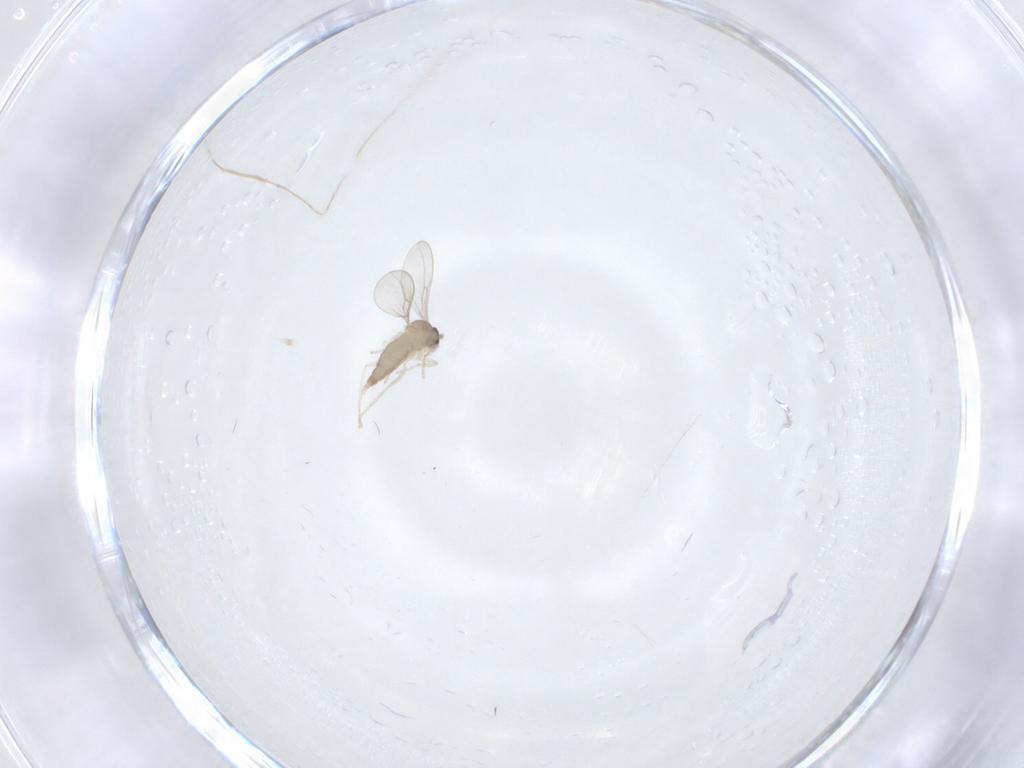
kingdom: Animalia
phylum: Arthropoda
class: Insecta
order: Diptera
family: Cecidomyiidae
